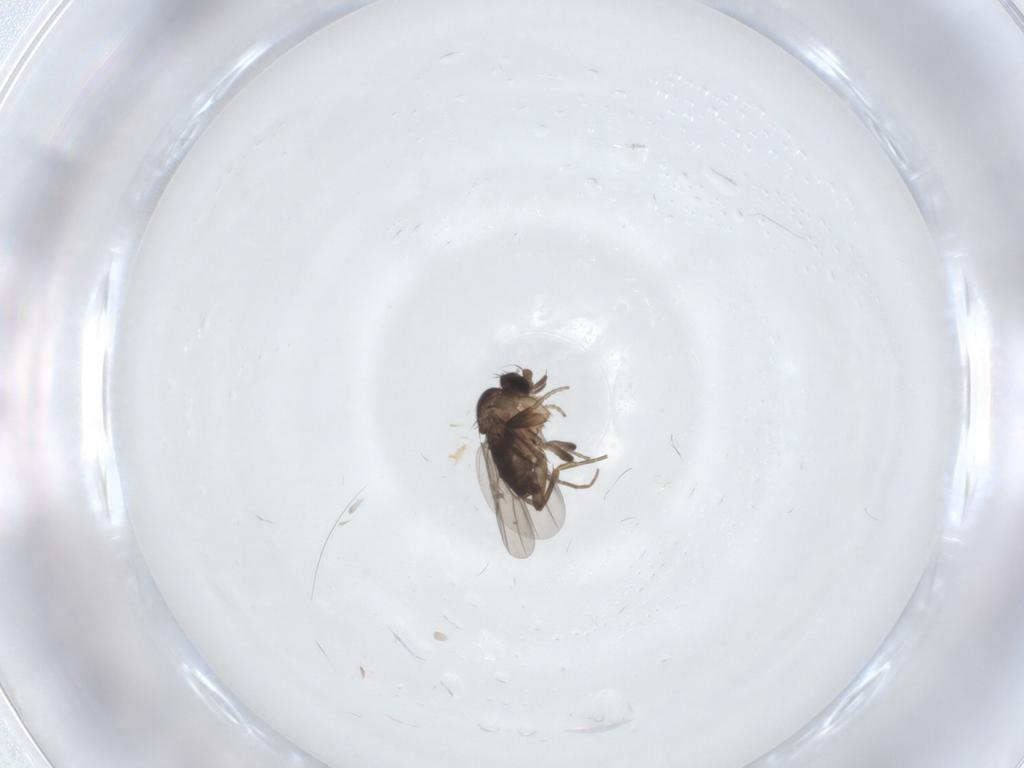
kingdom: Animalia
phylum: Arthropoda
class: Insecta
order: Diptera
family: Phoridae
